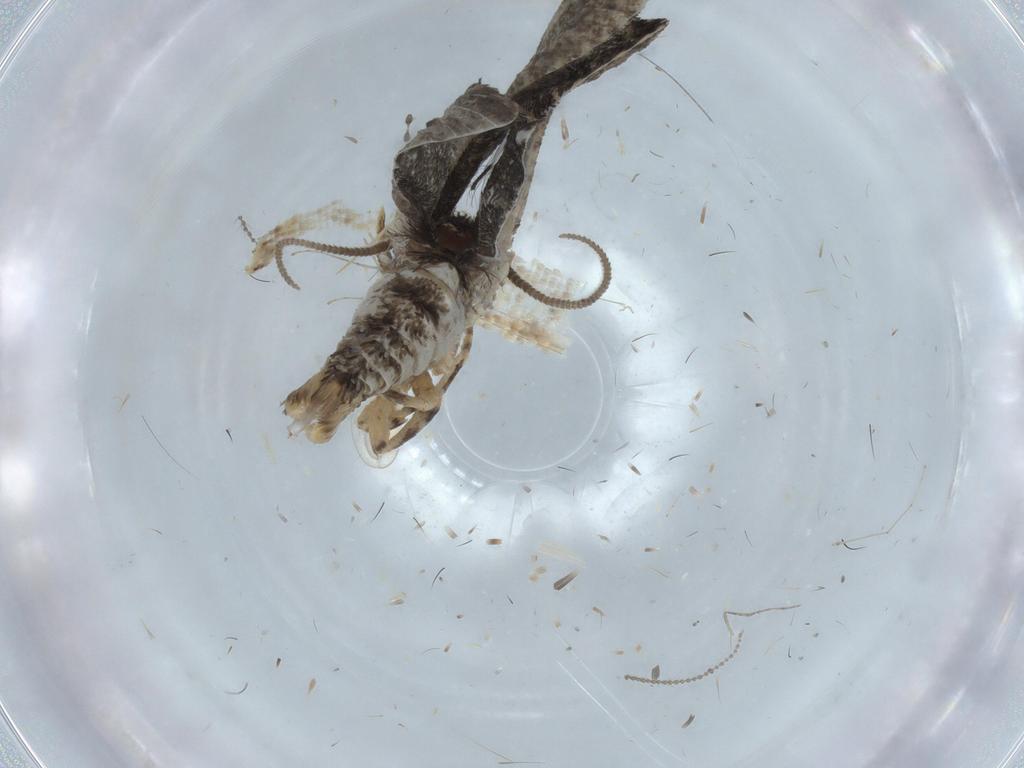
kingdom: Animalia
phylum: Arthropoda
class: Insecta
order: Lepidoptera
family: Tineidae
